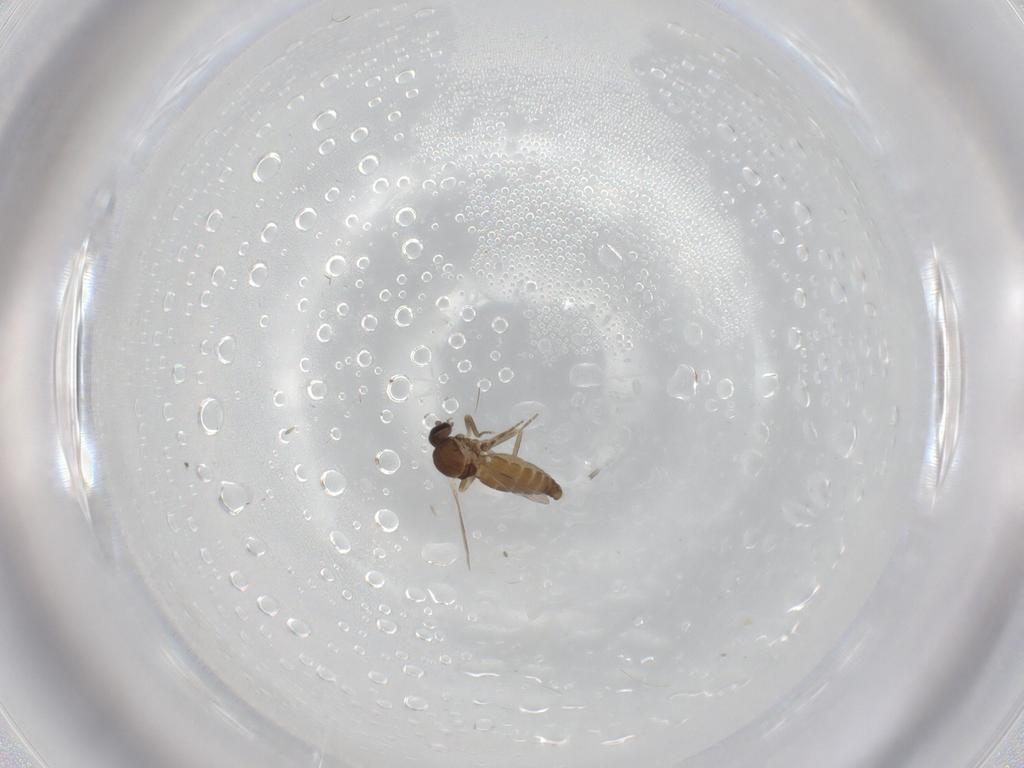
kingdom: Animalia
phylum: Arthropoda
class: Insecta
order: Diptera
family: Ceratopogonidae
